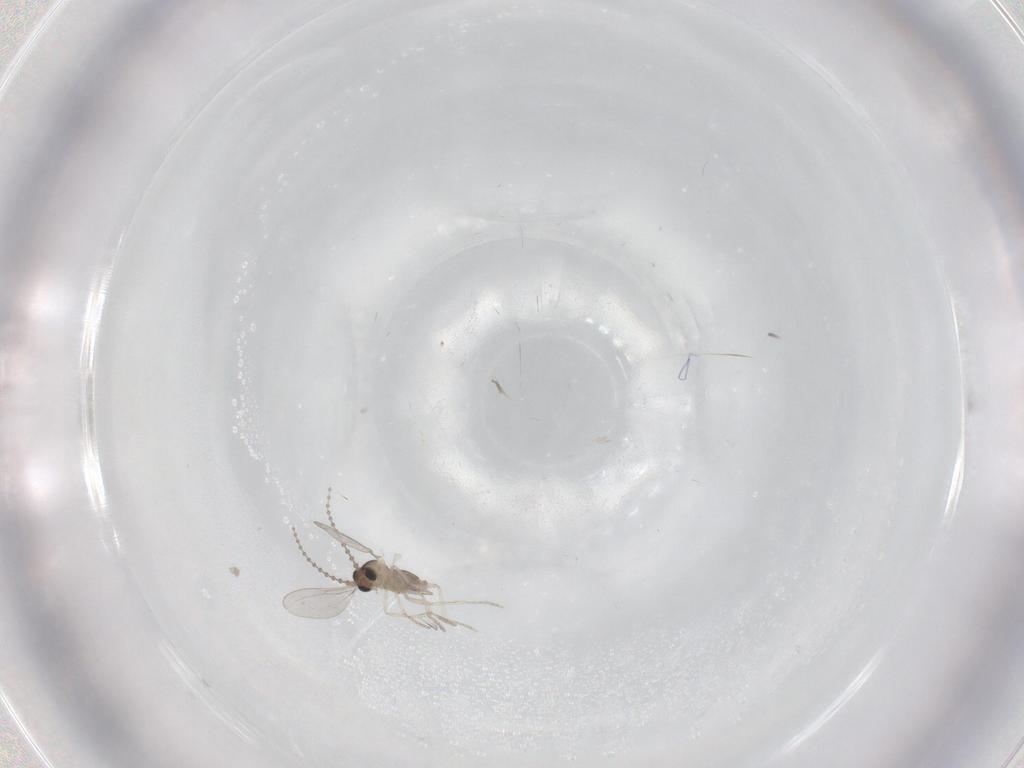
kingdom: Animalia
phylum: Arthropoda
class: Insecta
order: Diptera
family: Cecidomyiidae
